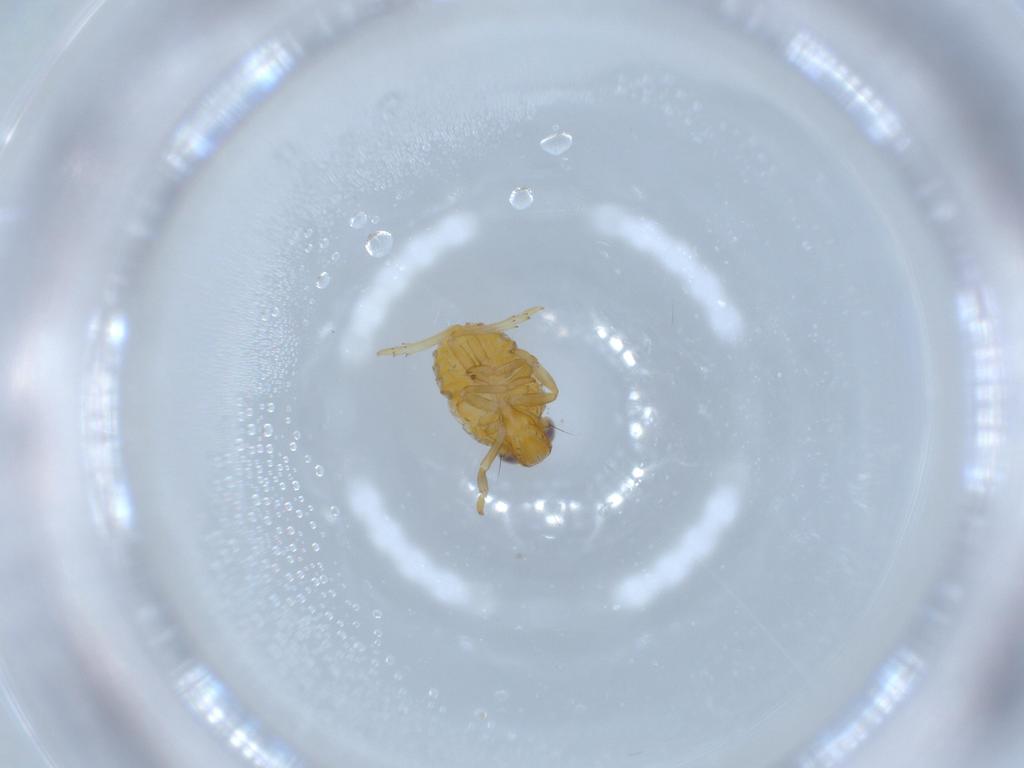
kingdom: Animalia
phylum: Arthropoda
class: Insecta
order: Hemiptera
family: Issidae
